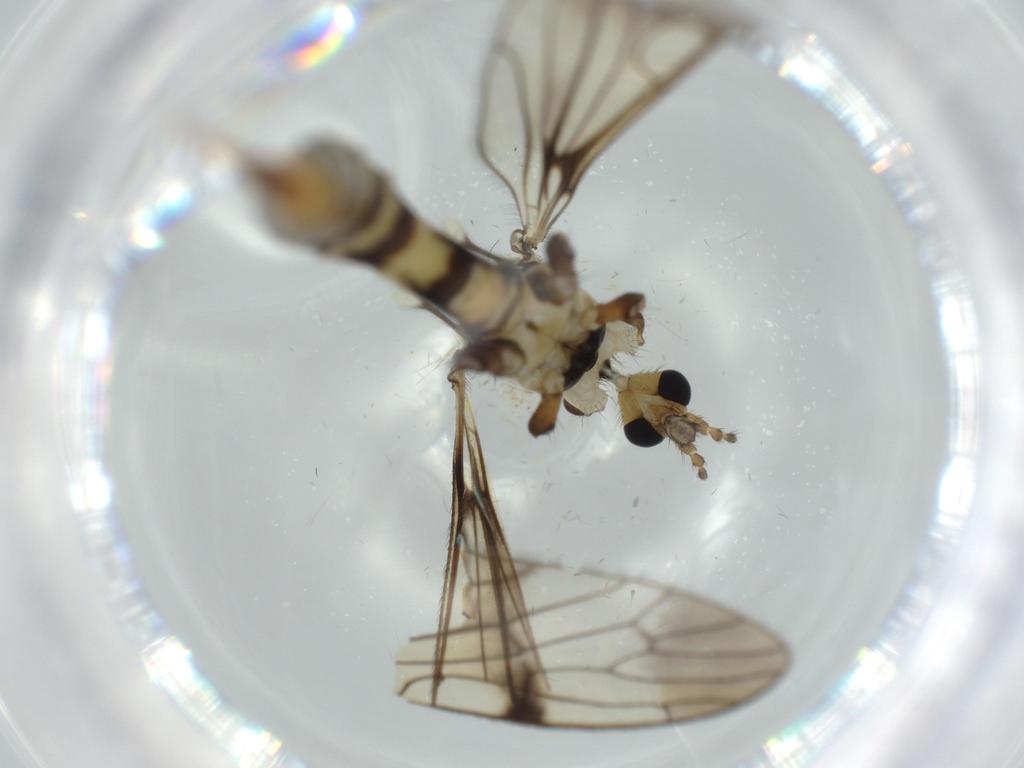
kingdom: Animalia
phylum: Arthropoda
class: Insecta
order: Diptera
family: Limoniidae
